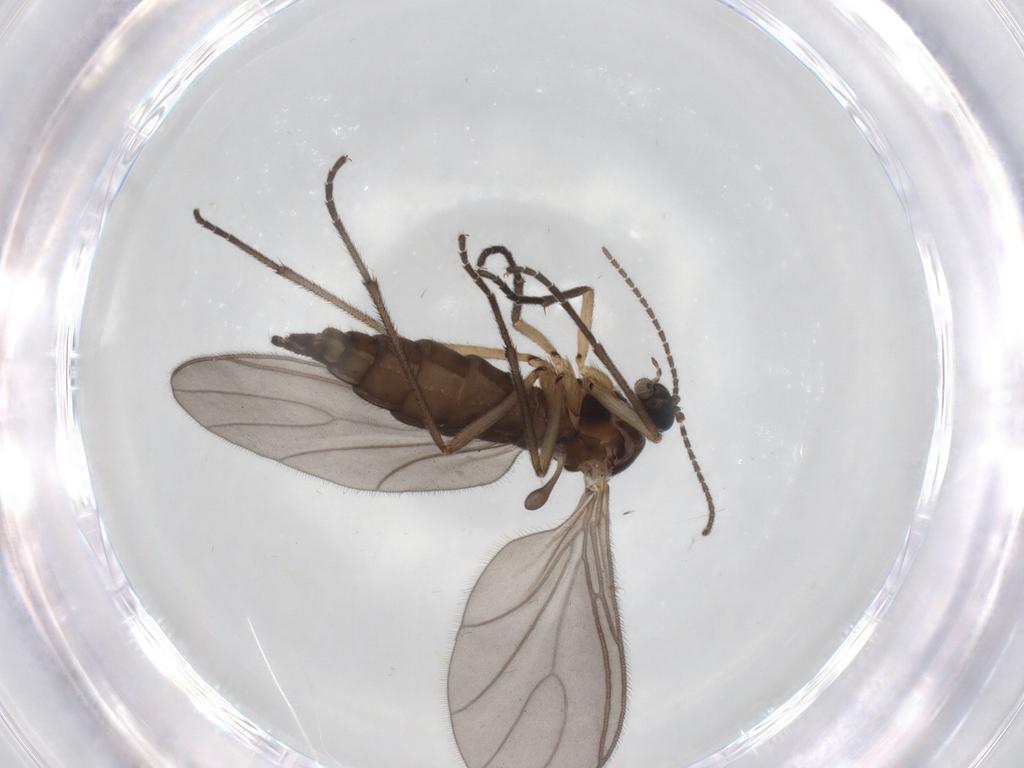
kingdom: Animalia
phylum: Arthropoda
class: Insecta
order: Diptera
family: Sciaridae
